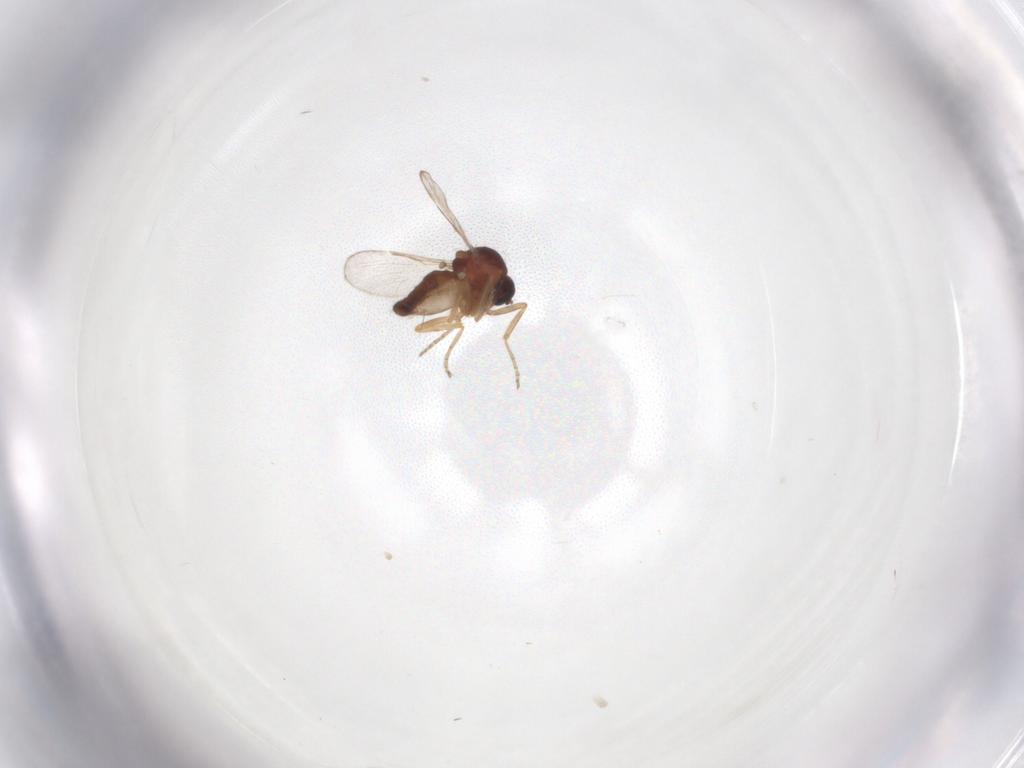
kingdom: Animalia
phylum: Arthropoda
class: Insecta
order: Diptera
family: Ceratopogonidae
